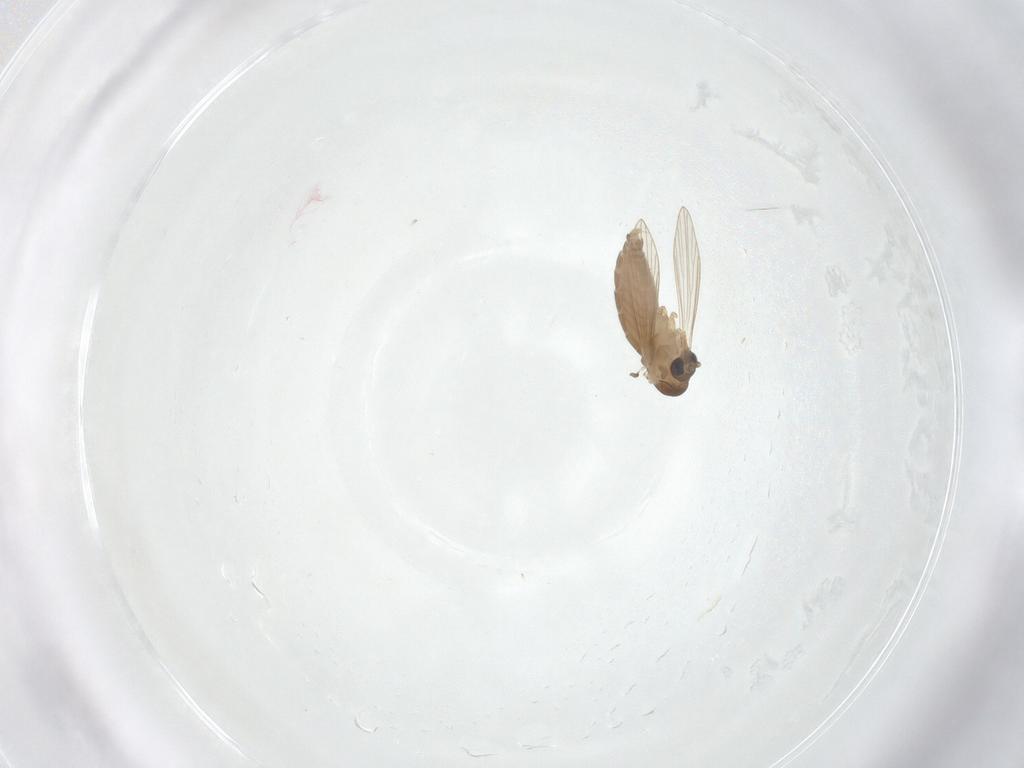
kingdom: Animalia
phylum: Arthropoda
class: Insecta
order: Diptera
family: Psychodidae
